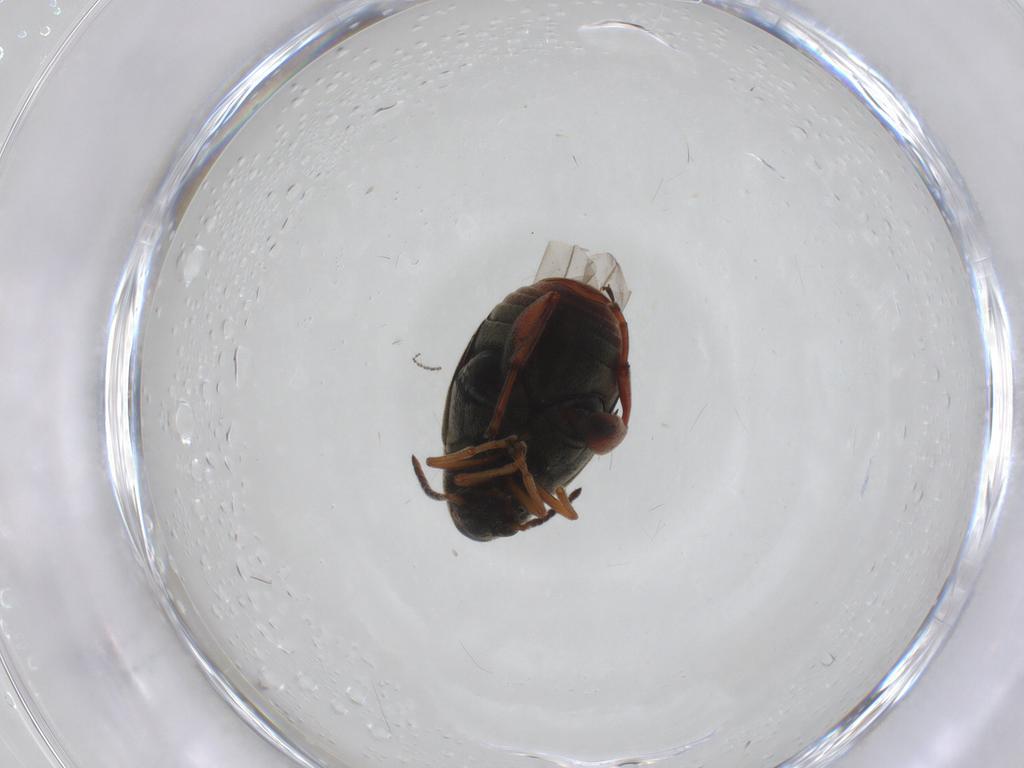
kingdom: Animalia
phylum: Arthropoda
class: Insecta
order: Coleoptera
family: Chrysomelidae
